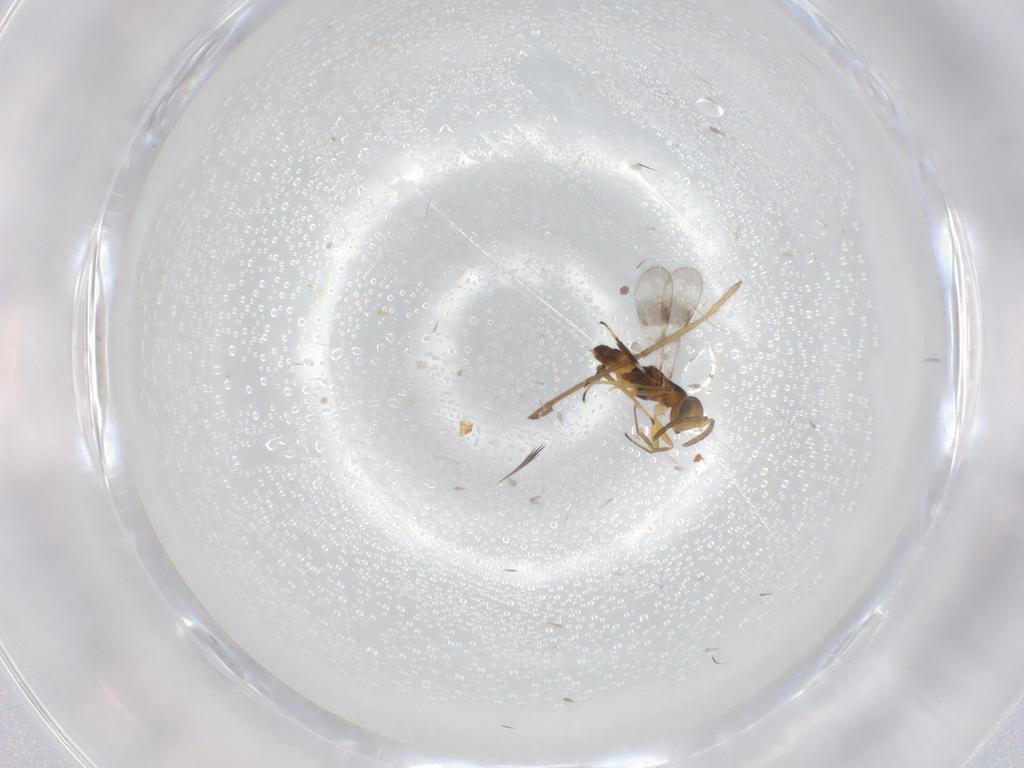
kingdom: Animalia
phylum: Arthropoda
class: Insecta
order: Hymenoptera
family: Encyrtidae
